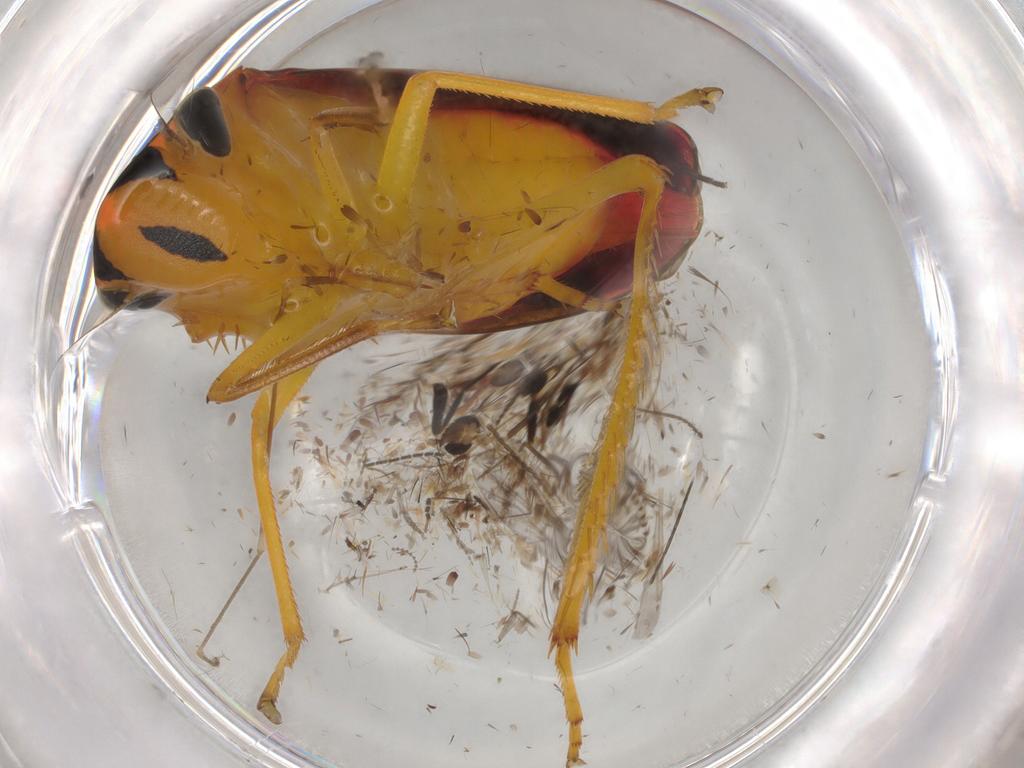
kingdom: Animalia
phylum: Arthropoda
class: Insecta
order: Hemiptera
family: Cicadellidae
